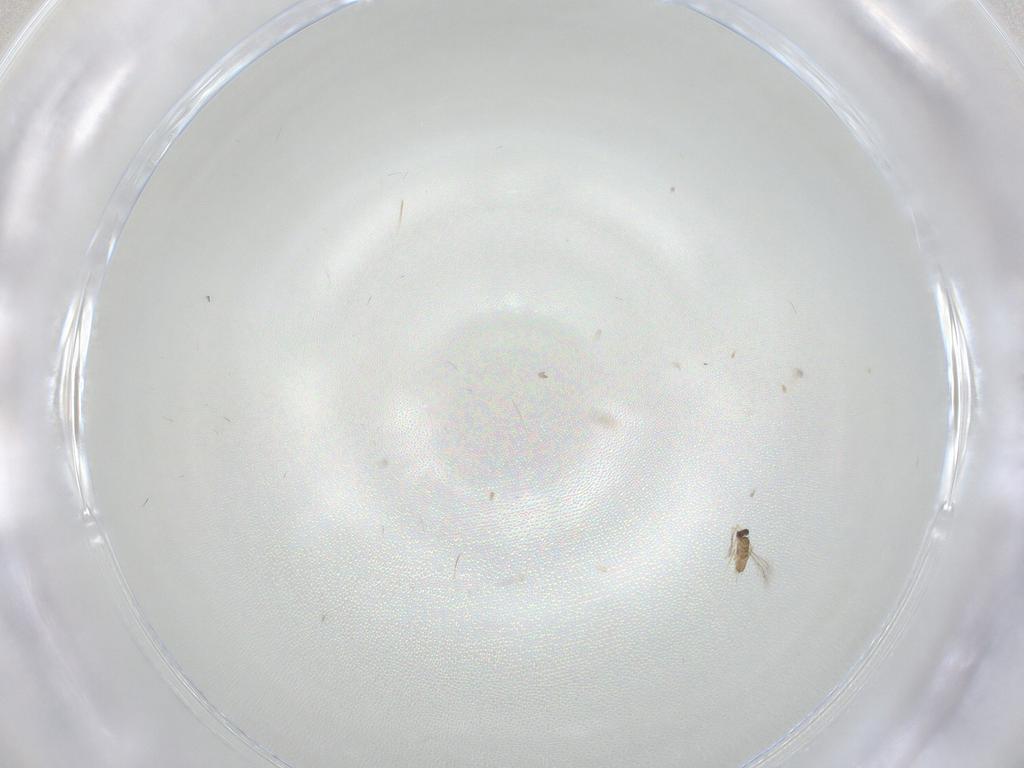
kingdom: Animalia
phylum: Arthropoda
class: Insecta
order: Hymenoptera
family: Mymaridae
